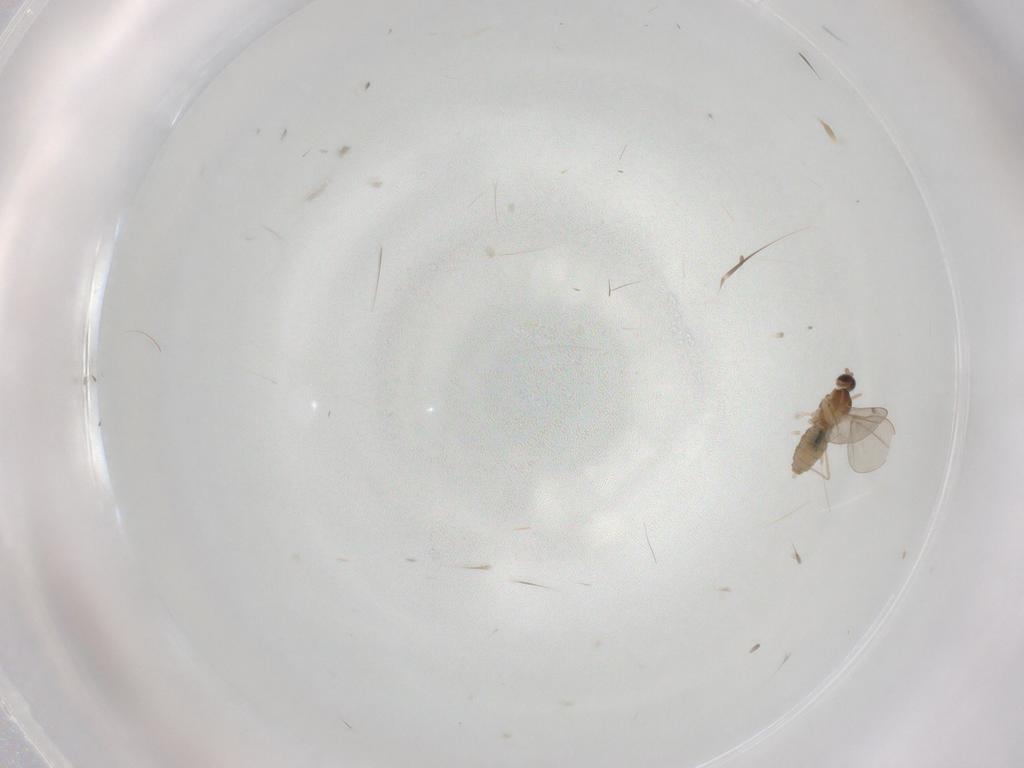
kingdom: Animalia
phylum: Arthropoda
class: Insecta
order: Diptera
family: Cecidomyiidae
